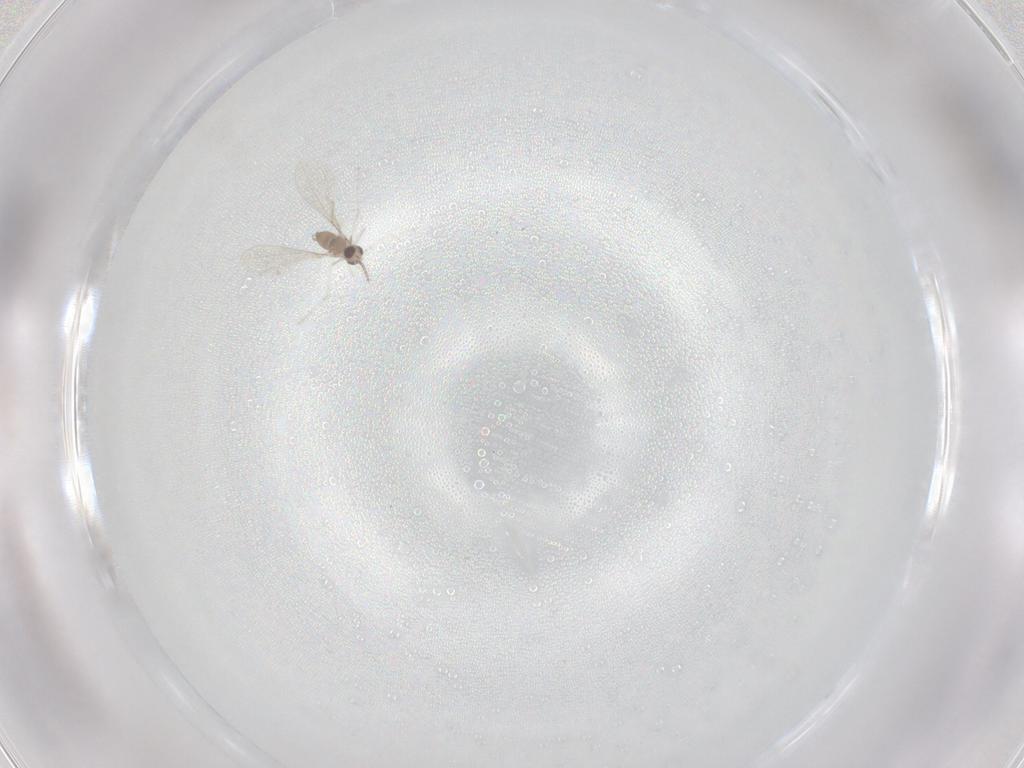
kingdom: Animalia
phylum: Arthropoda
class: Insecta
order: Diptera
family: Cecidomyiidae
